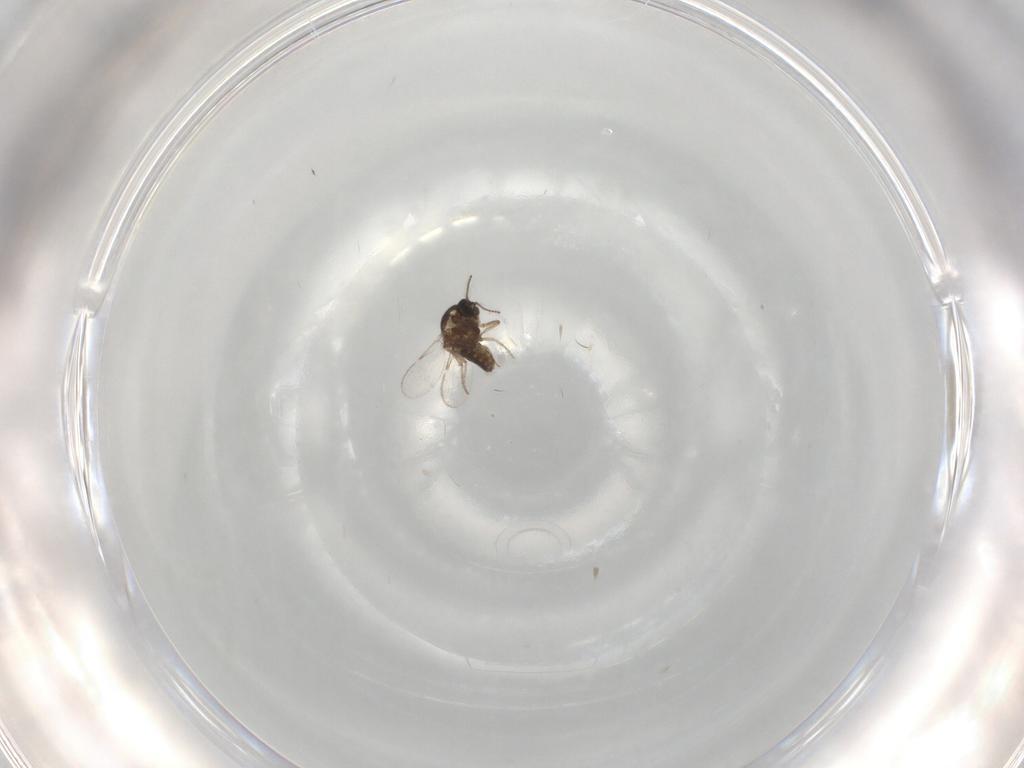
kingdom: Animalia
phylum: Arthropoda
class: Insecta
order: Diptera
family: Ceratopogonidae
